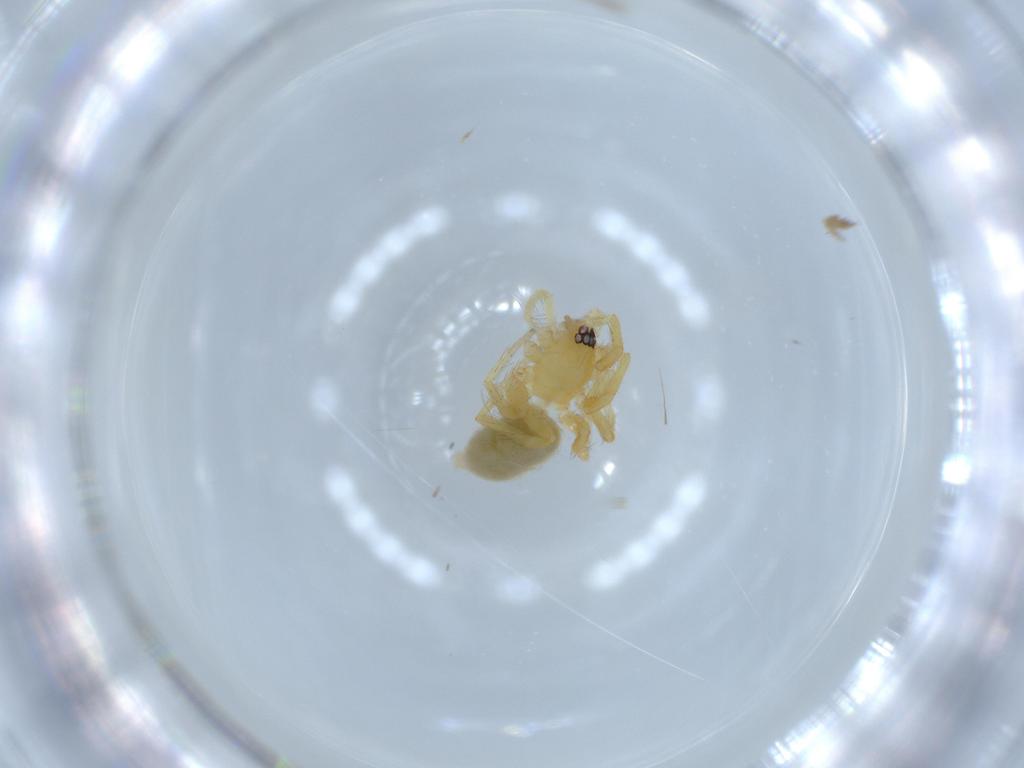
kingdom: Animalia
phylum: Arthropoda
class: Arachnida
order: Araneae
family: Oonopidae
